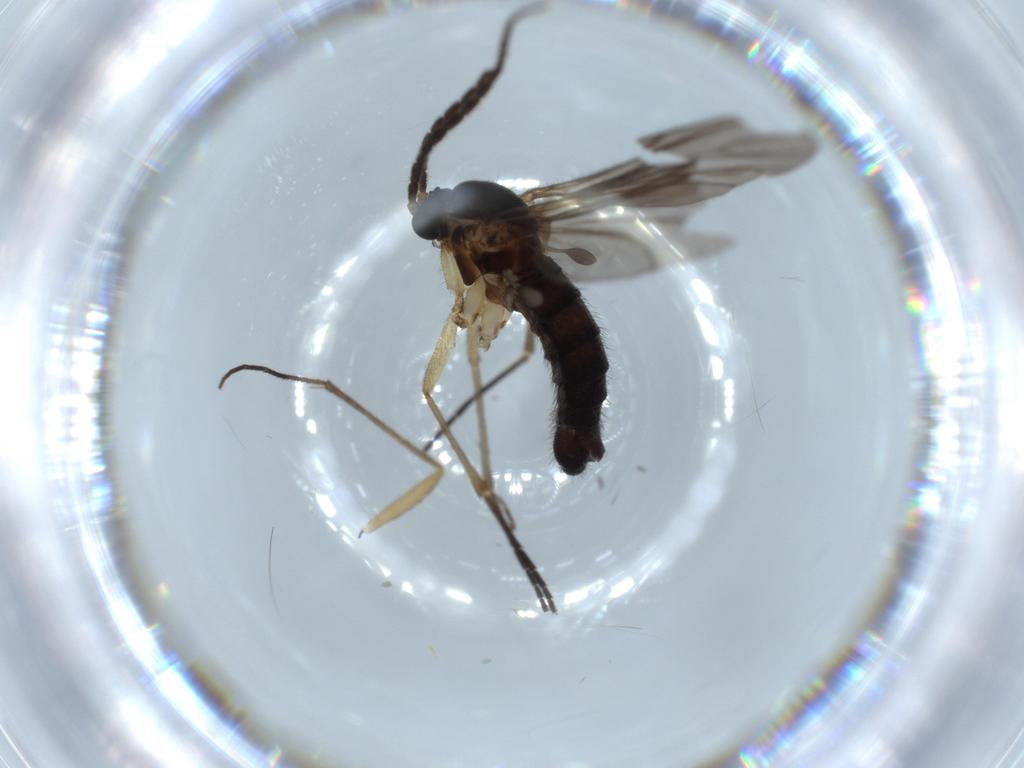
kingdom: Animalia
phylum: Arthropoda
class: Insecta
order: Diptera
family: Sciaridae
